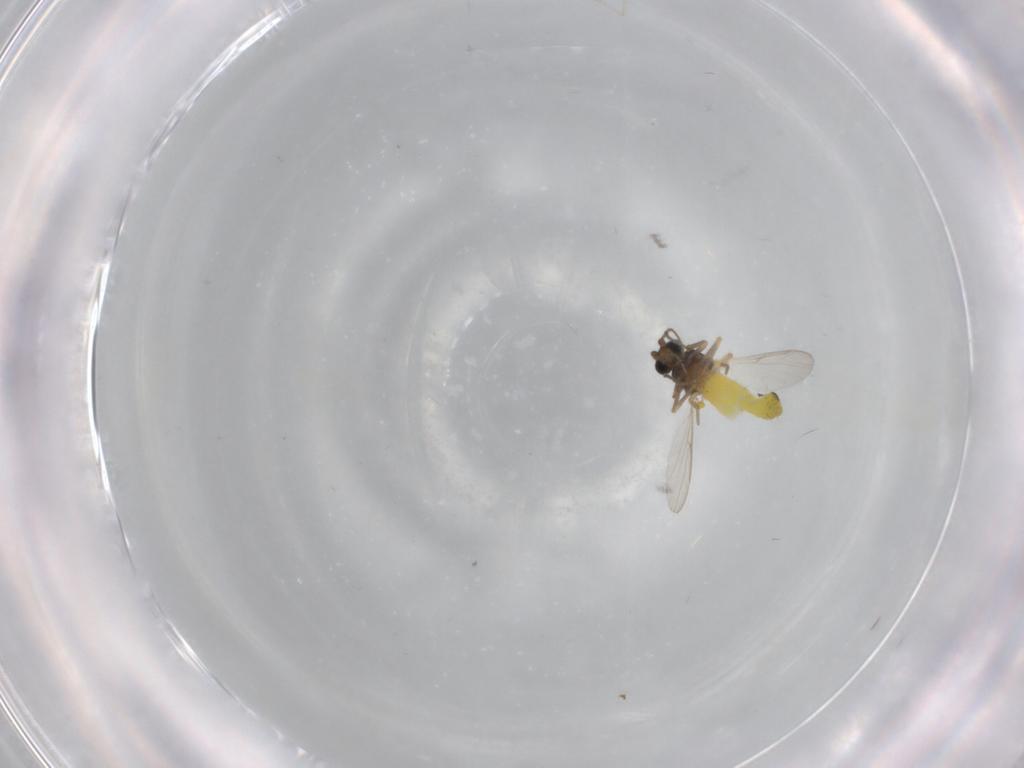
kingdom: Animalia
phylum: Arthropoda
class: Insecta
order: Diptera
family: Ceratopogonidae
